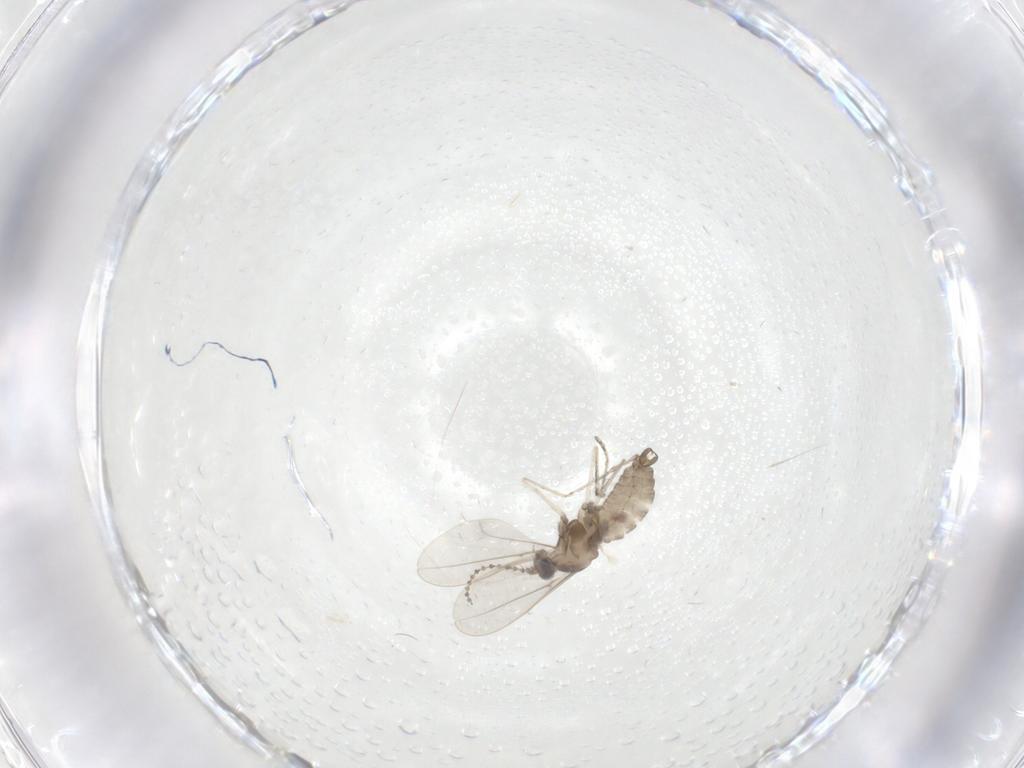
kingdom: Animalia
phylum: Arthropoda
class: Insecta
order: Diptera
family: Cecidomyiidae
